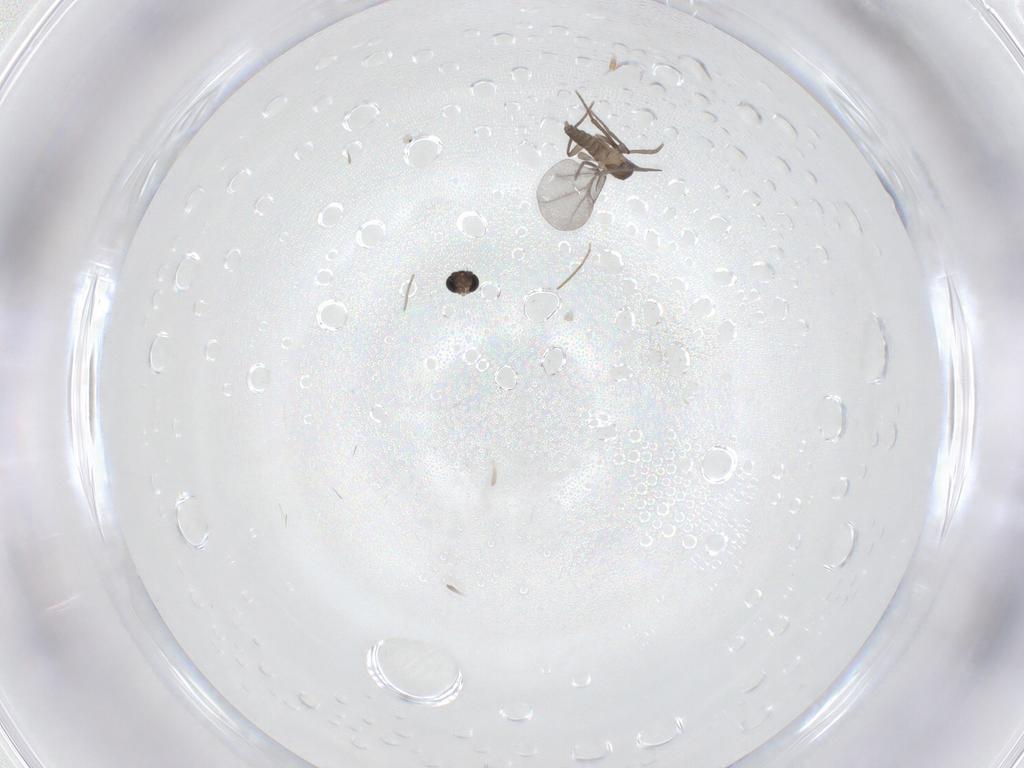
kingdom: Animalia
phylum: Arthropoda
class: Insecta
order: Diptera
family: Phoridae
